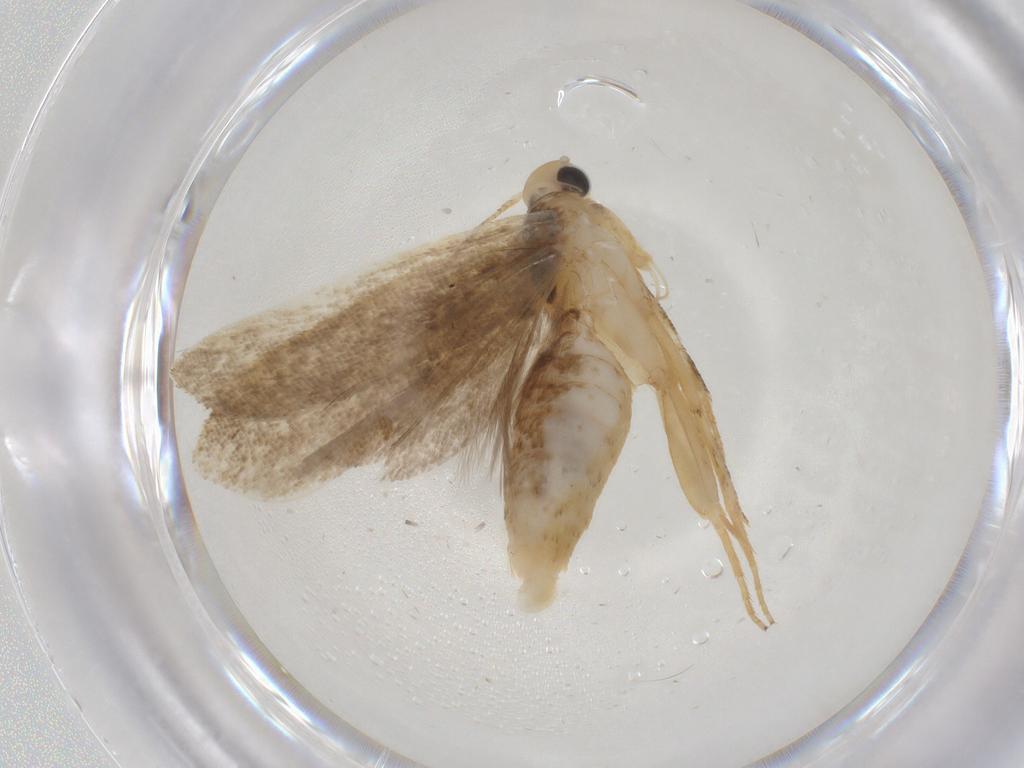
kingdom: Animalia
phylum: Arthropoda
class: Insecta
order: Lepidoptera
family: Gelechiidae
